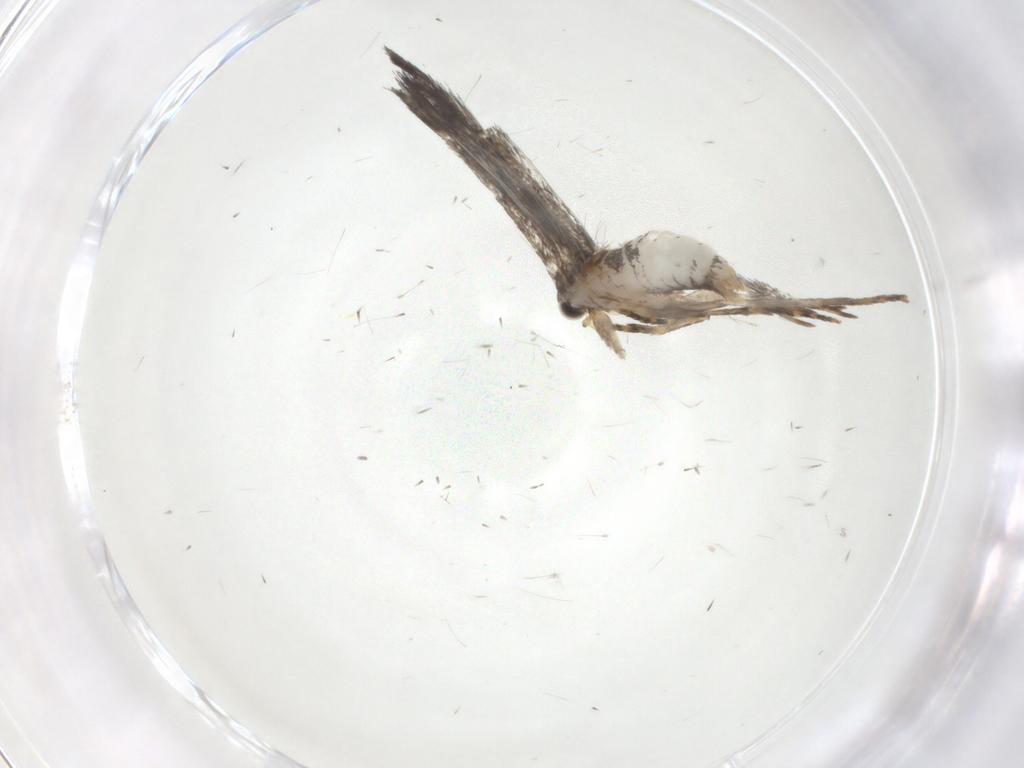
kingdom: Animalia
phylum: Arthropoda
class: Insecta
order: Lepidoptera
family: Tineidae
